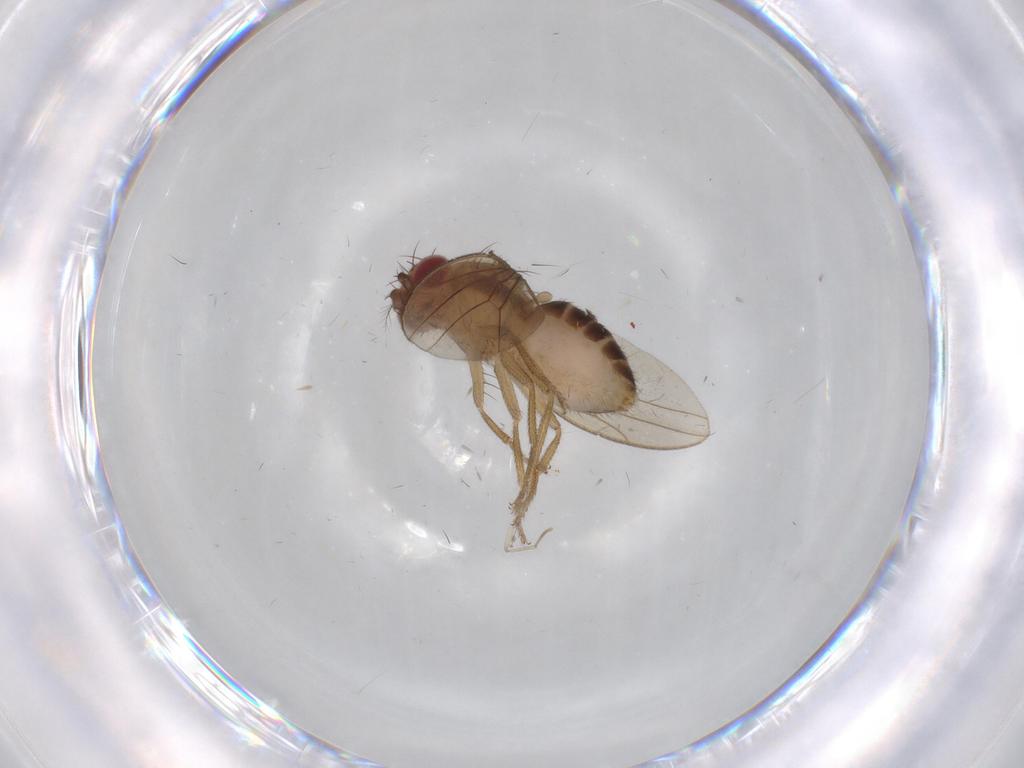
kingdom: Animalia
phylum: Arthropoda
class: Insecta
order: Diptera
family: Drosophilidae
